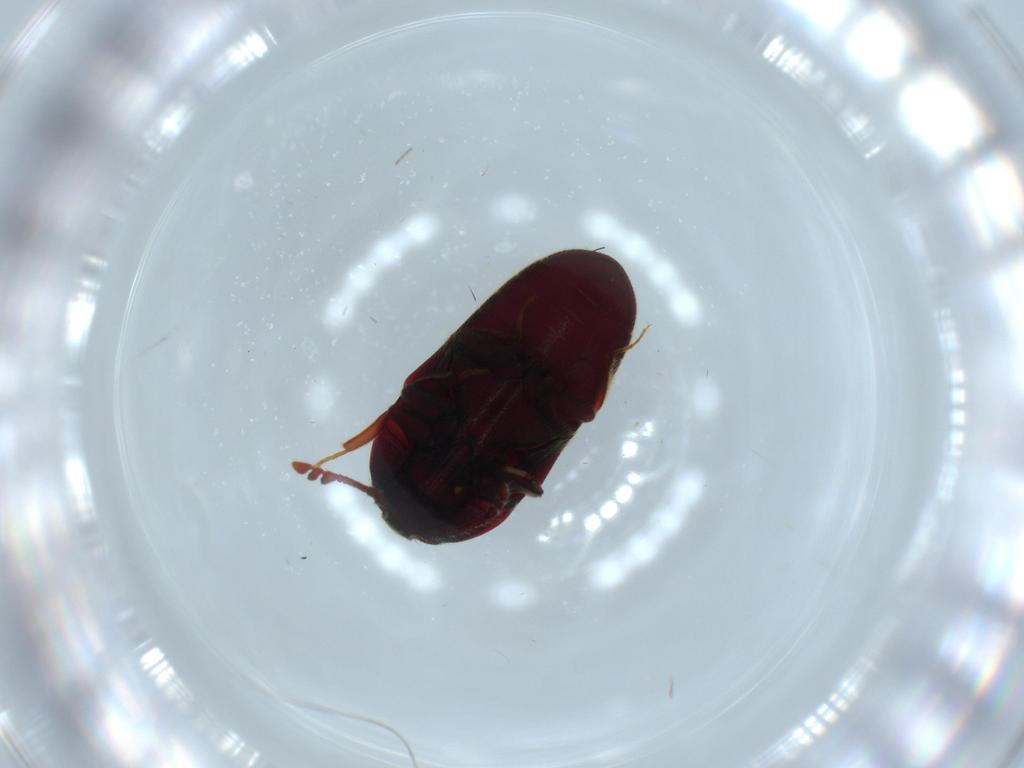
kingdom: Animalia
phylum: Arthropoda
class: Insecta
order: Coleoptera
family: Throscidae
